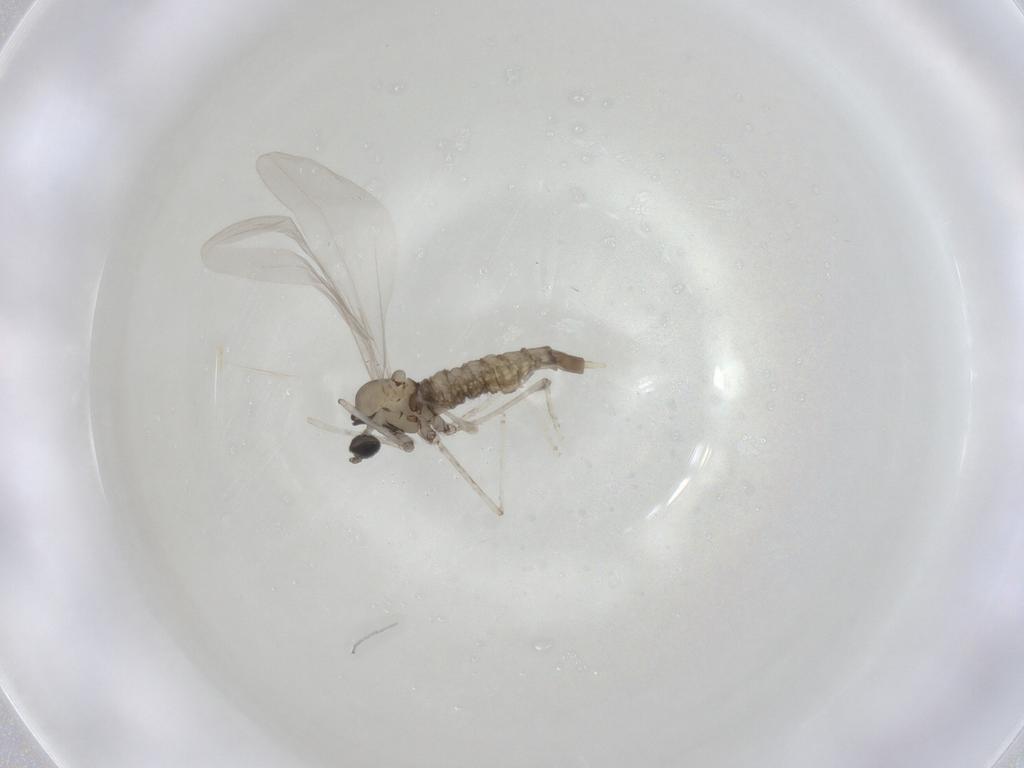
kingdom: Animalia
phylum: Arthropoda
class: Insecta
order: Diptera
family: Cecidomyiidae
